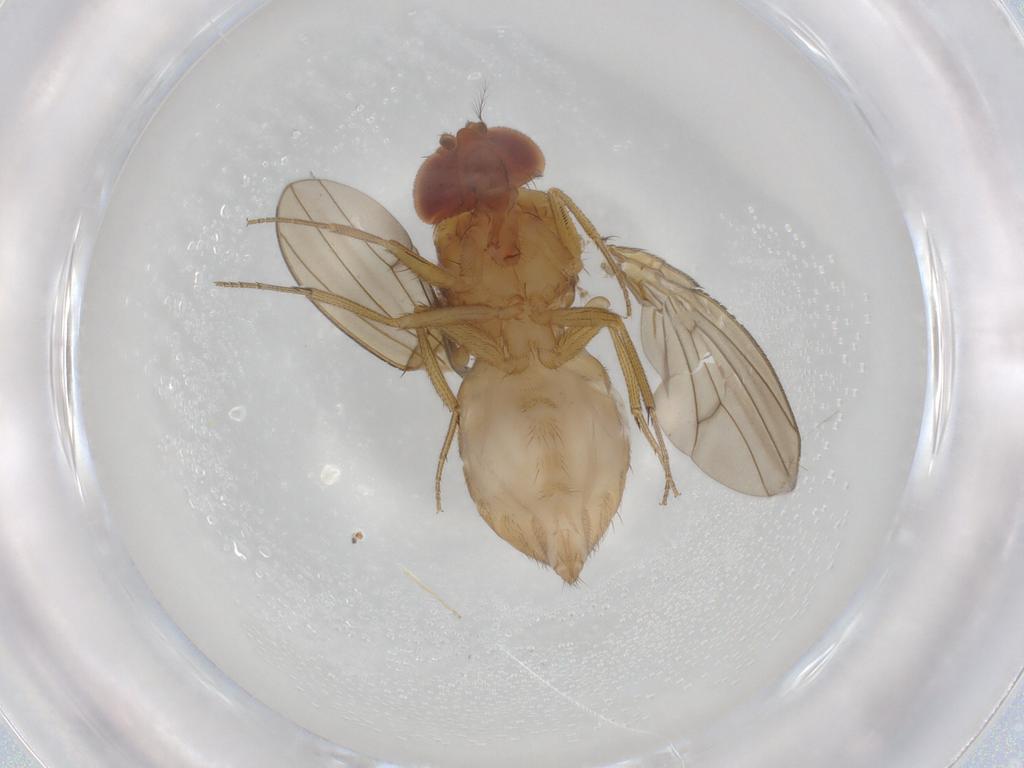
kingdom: Animalia
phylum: Arthropoda
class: Insecta
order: Diptera
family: Drosophilidae
